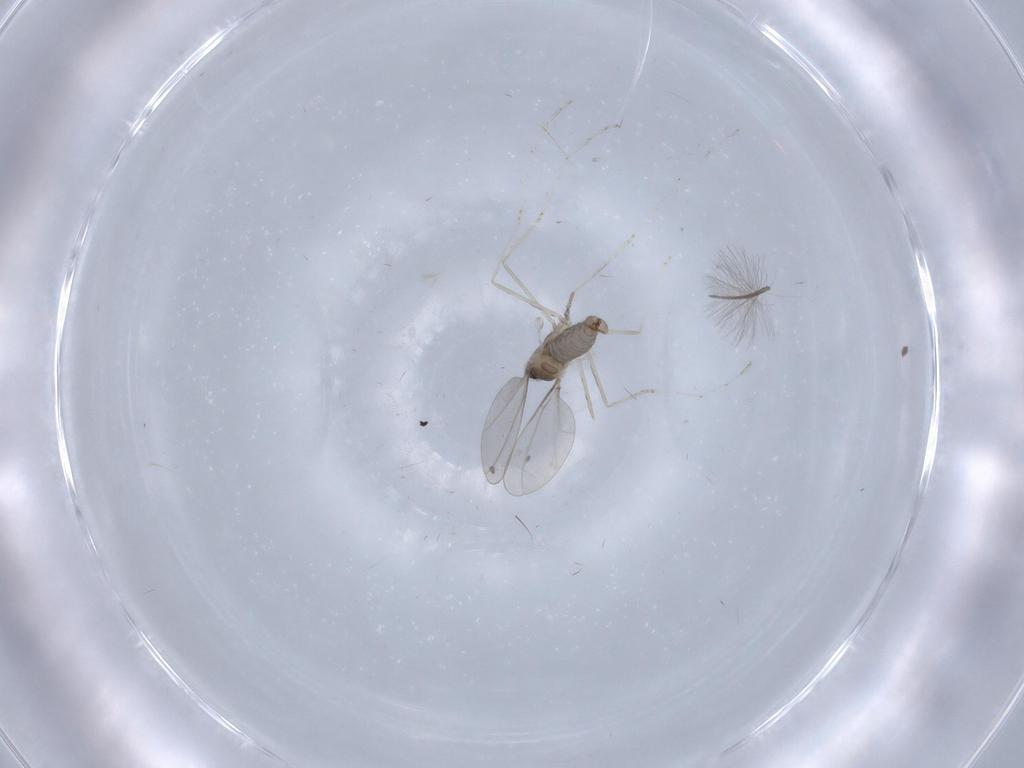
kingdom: Animalia
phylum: Arthropoda
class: Insecta
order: Diptera
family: Cecidomyiidae
